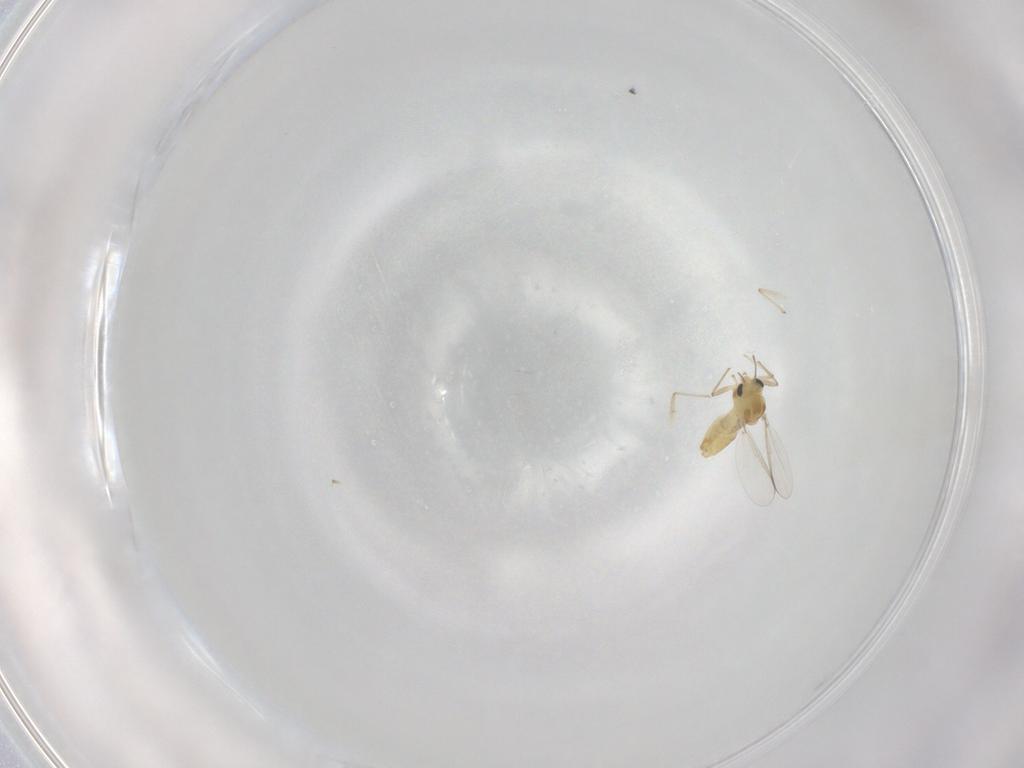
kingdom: Animalia
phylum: Arthropoda
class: Insecta
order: Diptera
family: Chironomidae
